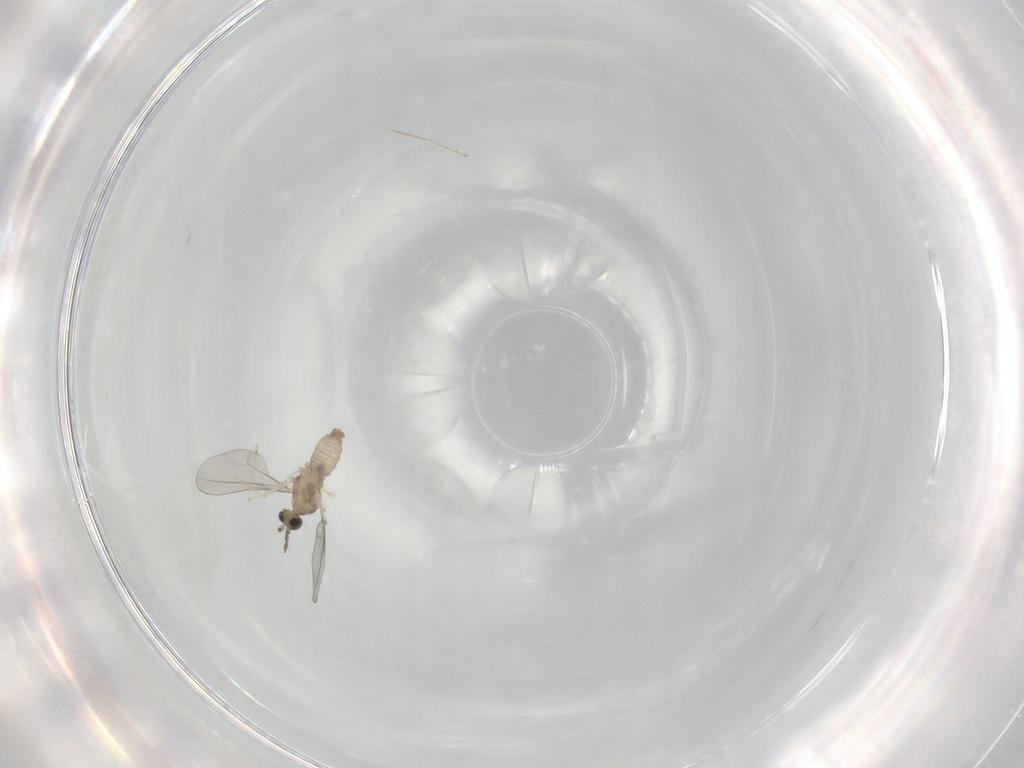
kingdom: Animalia
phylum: Arthropoda
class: Insecta
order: Diptera
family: Cecidomyiidae
